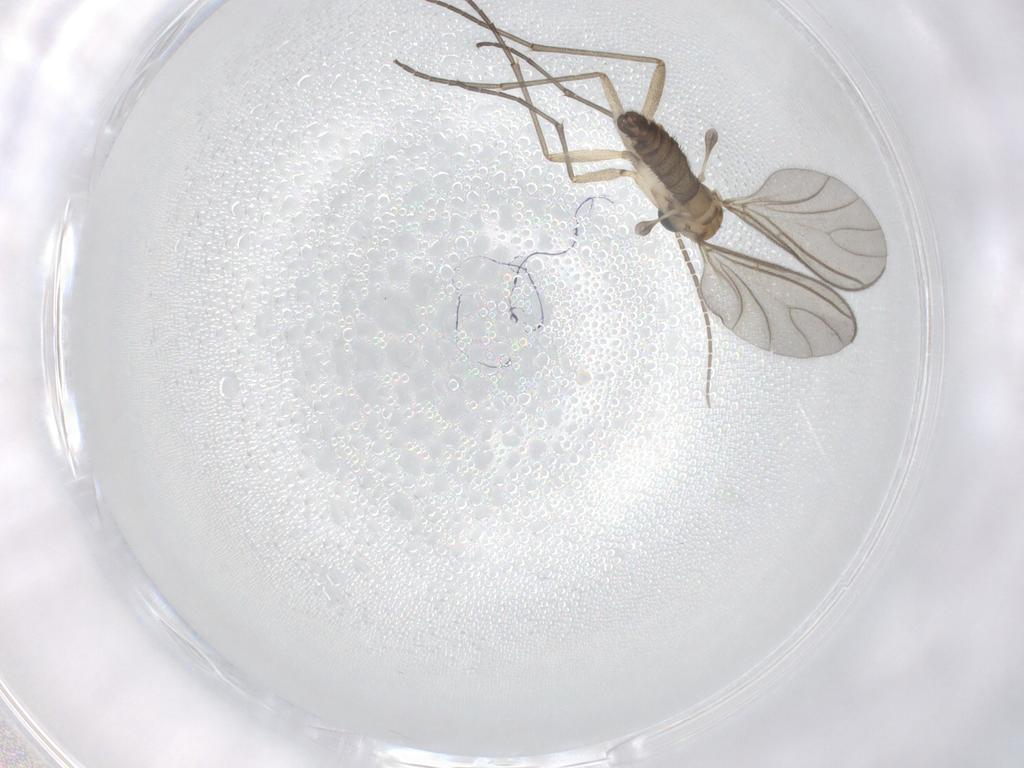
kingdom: Animalia
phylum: Arthropoda
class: Insecta
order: Diptera
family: Sciaridae
